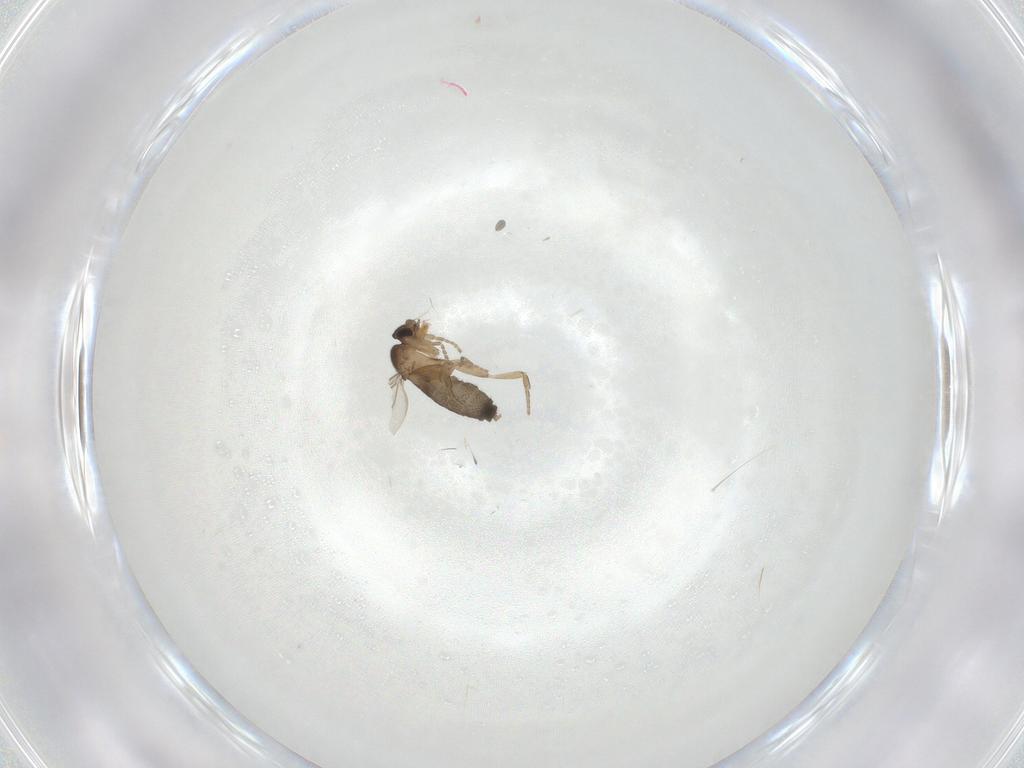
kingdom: Animalia
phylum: Arthropoda
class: Insecta
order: Diptera
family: Phoridae
